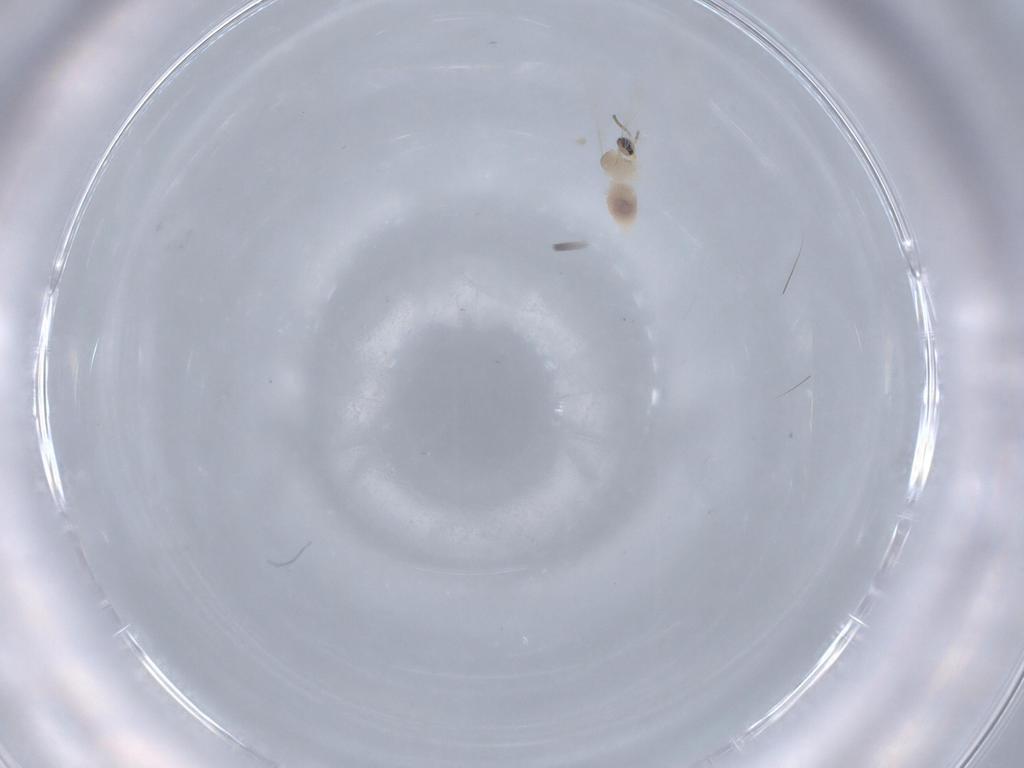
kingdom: Animalia
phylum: Arthropoda
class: Insecta
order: Diptera
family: Cecidomyiidae
